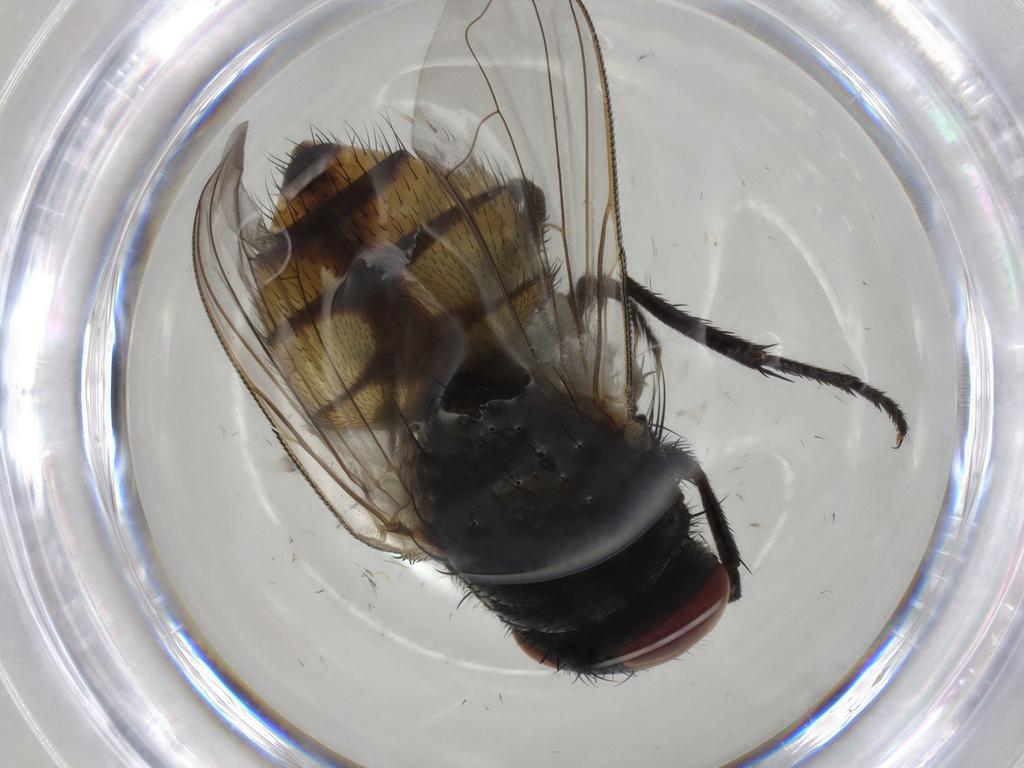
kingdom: Animalia
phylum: Arthropoda
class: Insecta
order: Diptera
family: Muscidae
